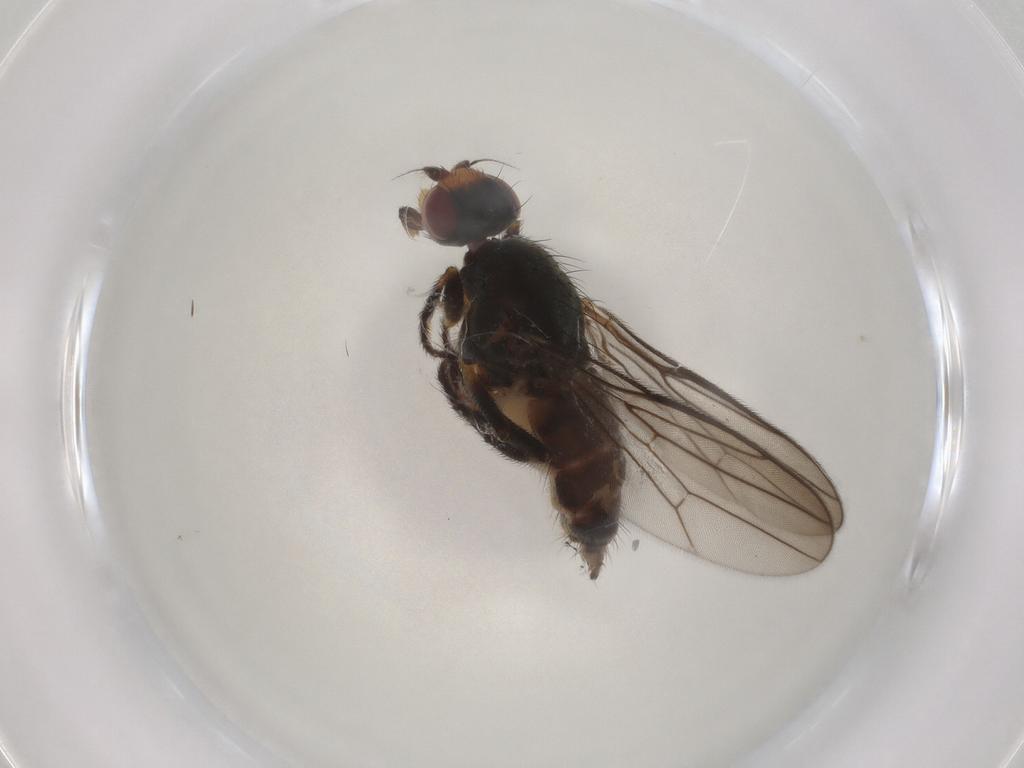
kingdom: Animalia
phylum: Arthropoda
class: Insecta
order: Diptera
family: Chloropidae
